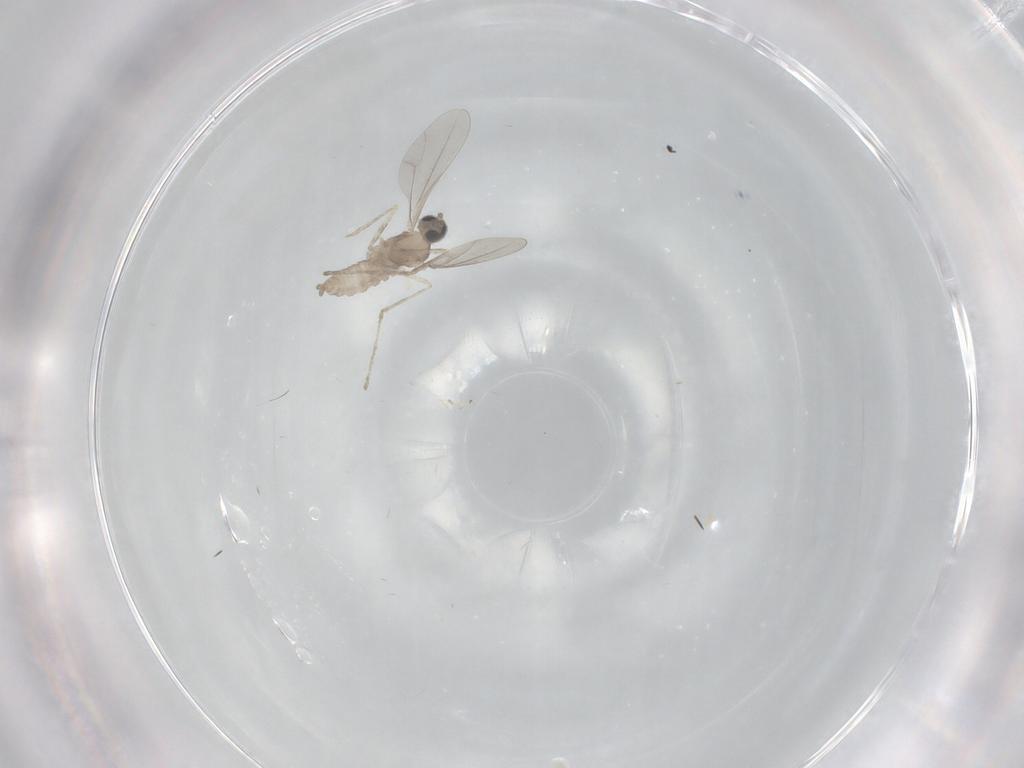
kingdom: Animalia
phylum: Arthropoda
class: Insecta
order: Diptera
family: Cecidomyiidae
